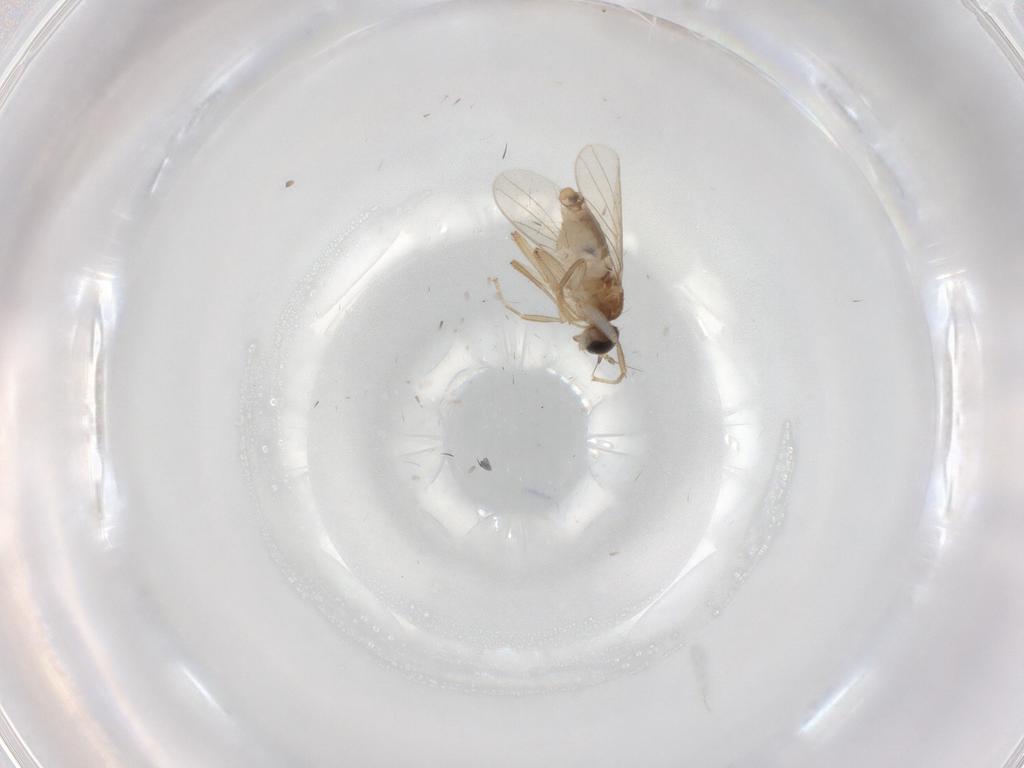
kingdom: Animalia
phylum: Arthropoda
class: Insecta
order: Diptera
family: Hybotidae
